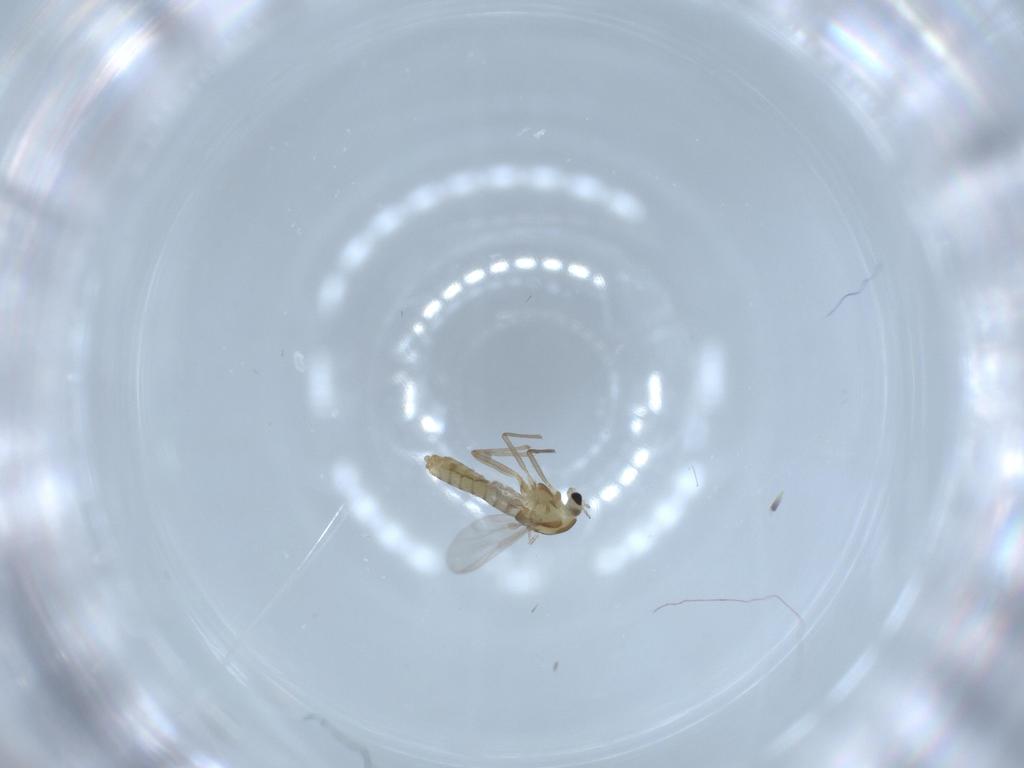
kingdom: Animalia
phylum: Arthropoda
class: Insecta
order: Diptera
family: Chironomidae
